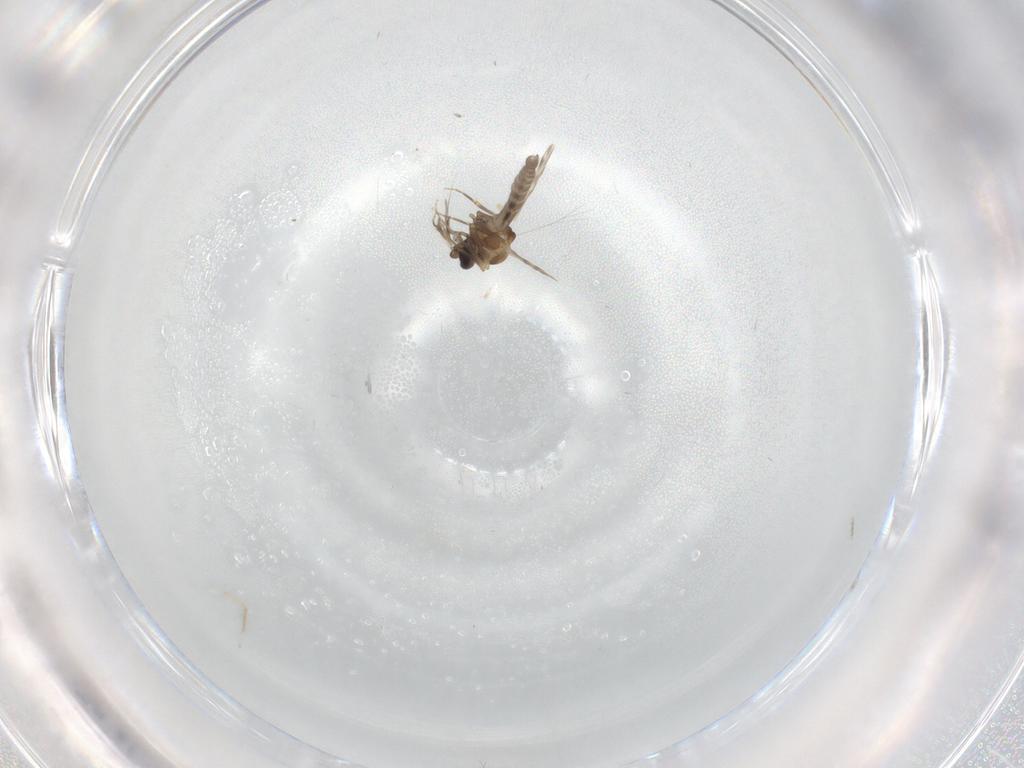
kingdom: Animalia
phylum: Arthropoda
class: Insecta
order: Diptera
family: Ceratopogonidae
